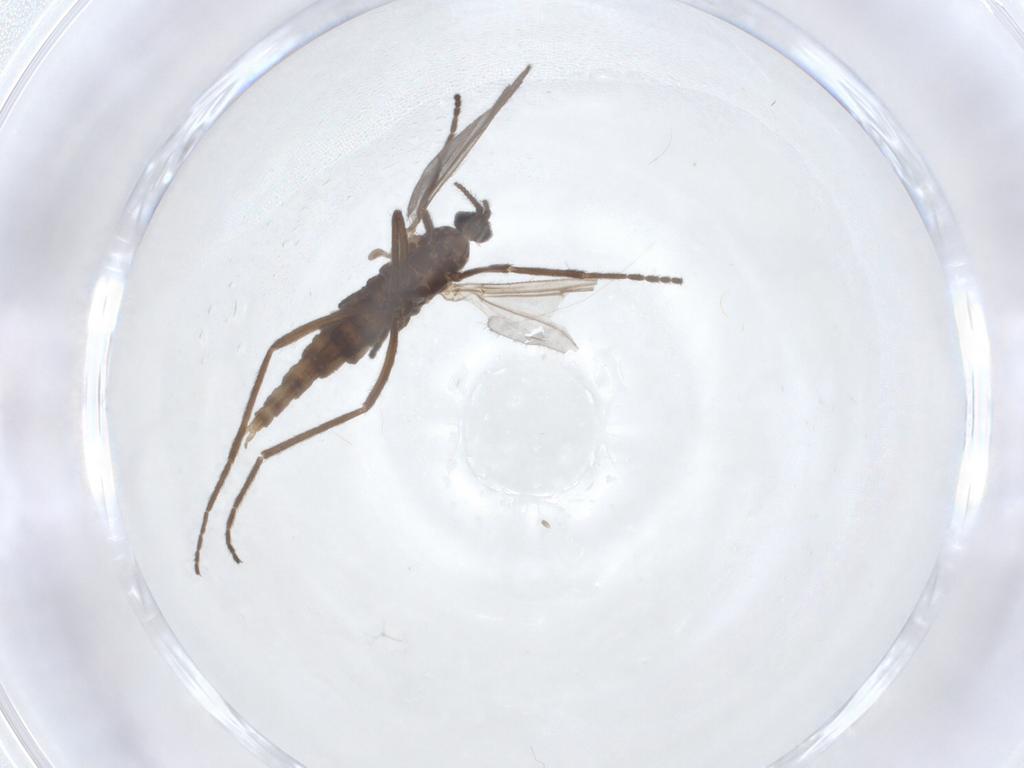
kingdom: Animalia
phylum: Arthropoda
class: Insecta
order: Diptera
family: Cecidomyiidae
